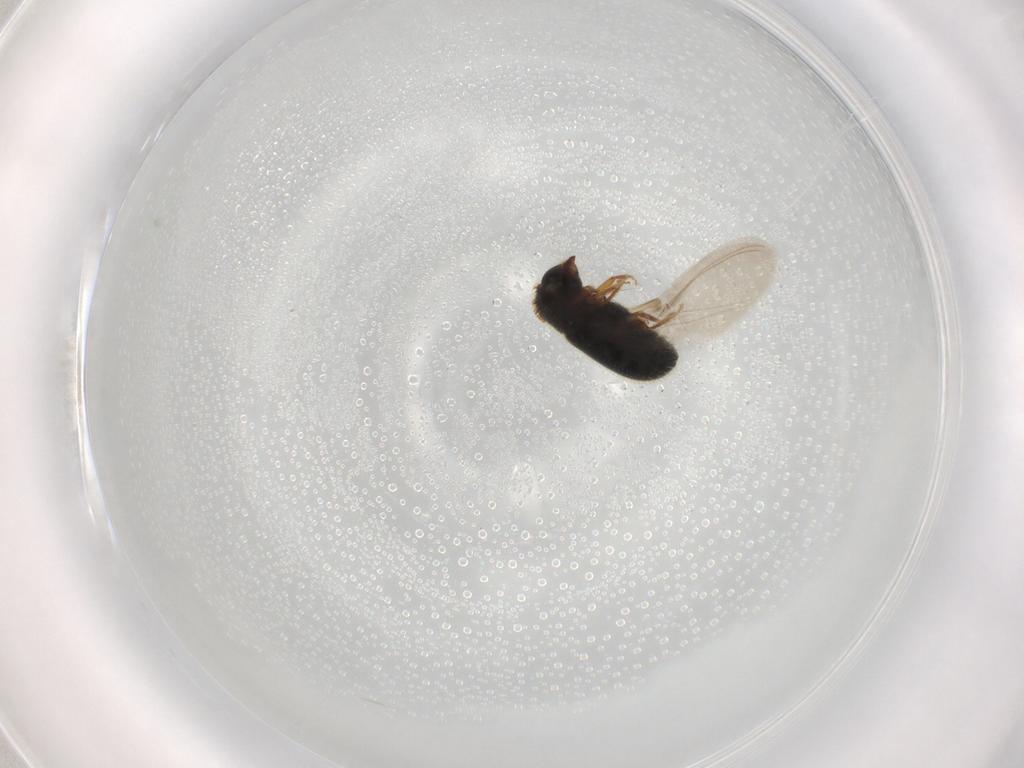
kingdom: Animalia
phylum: Arthropoda
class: Insecta
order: Coleoptera
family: Curculionidae
